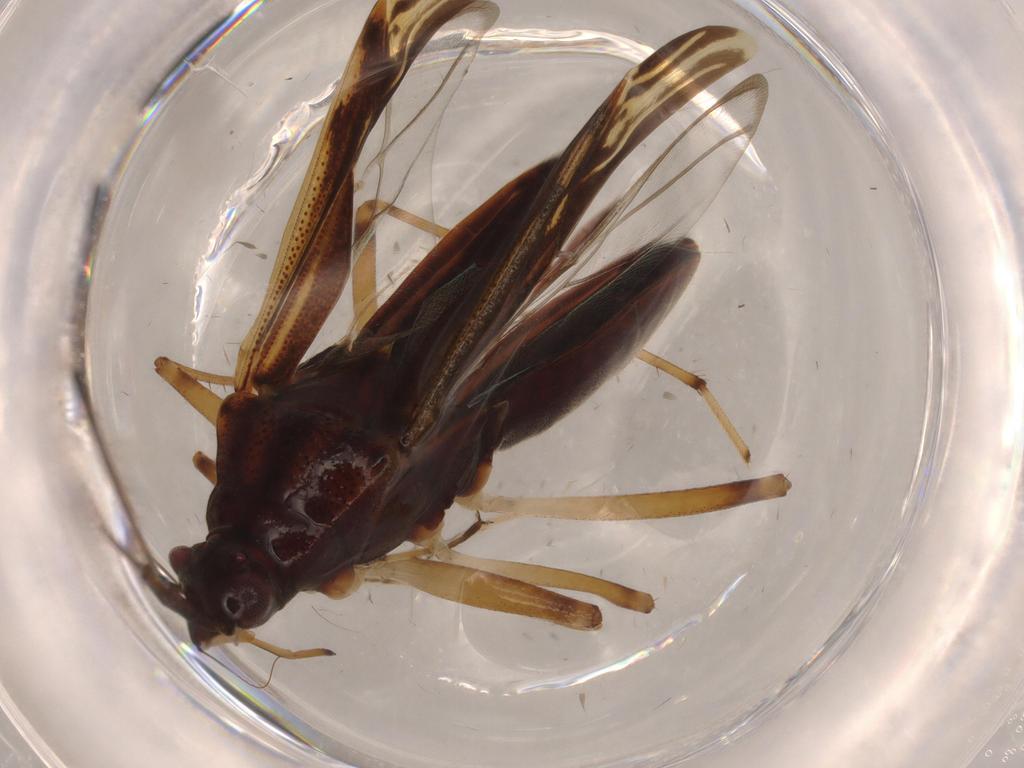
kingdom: Animalia
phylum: Arthropoda
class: Insecta
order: Hemiptera
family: Rhyparochromidae
